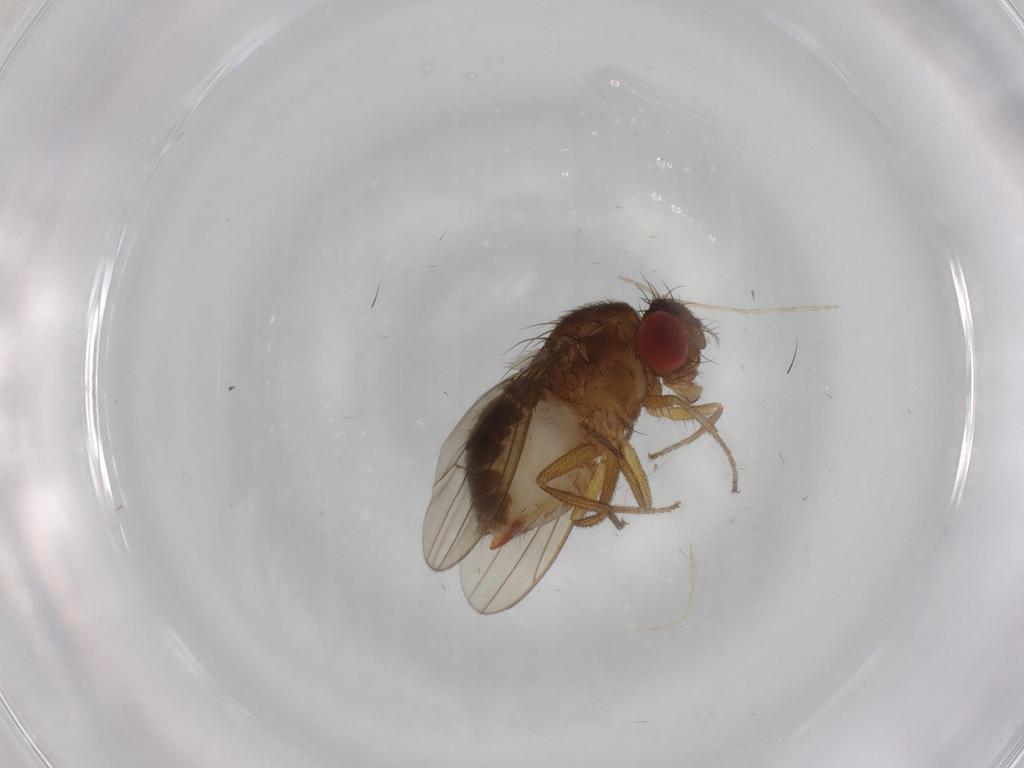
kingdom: Animalia
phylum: Arthropoda
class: Insecta
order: Diptera
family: Drosophilidae
